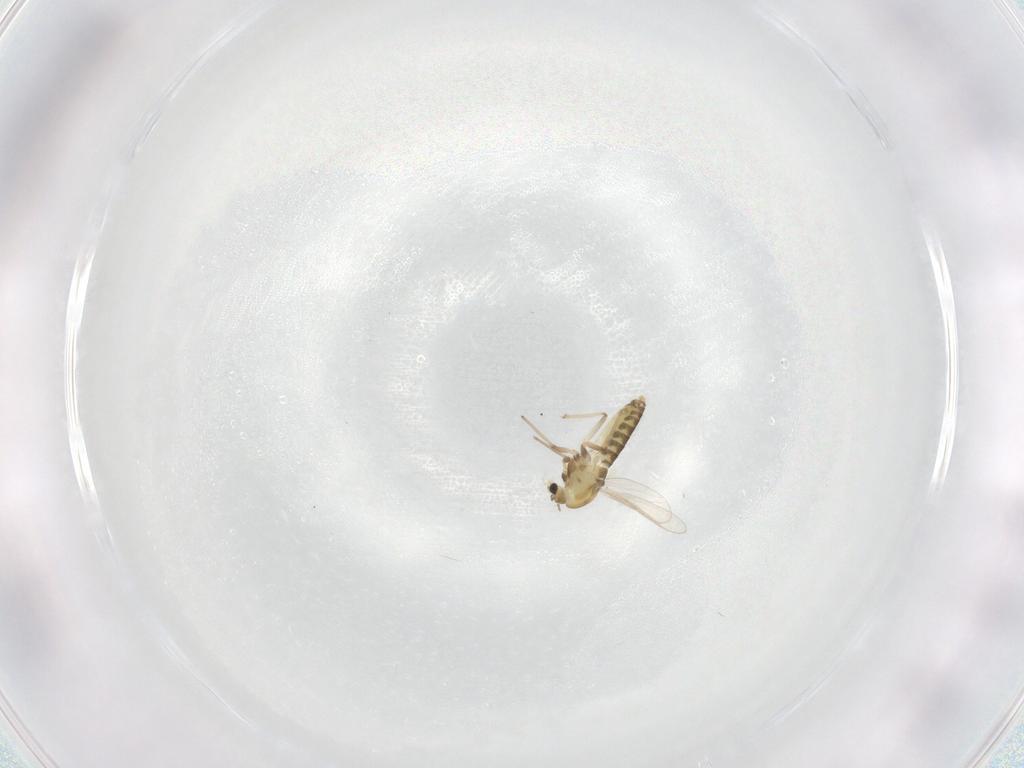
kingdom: Animalia
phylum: Arthropoda
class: Insecta
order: Diptera
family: Chironomidae
